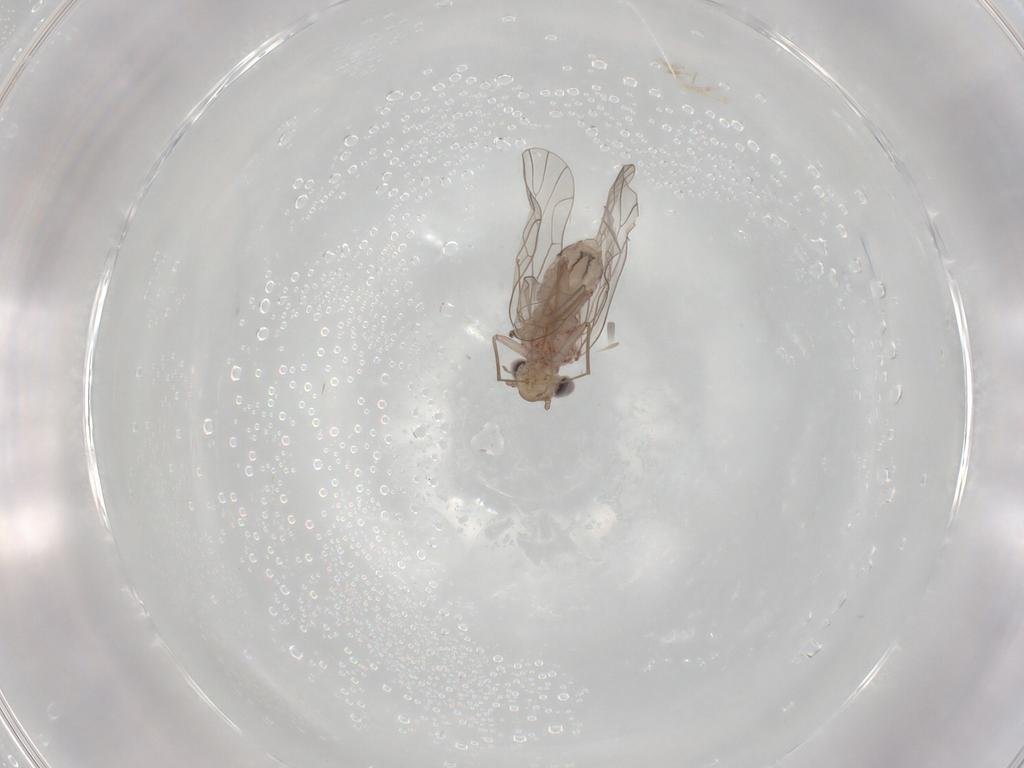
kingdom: Animalia
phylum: Arthropoda
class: Insecta
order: Psocodea
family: Musapsocidae
